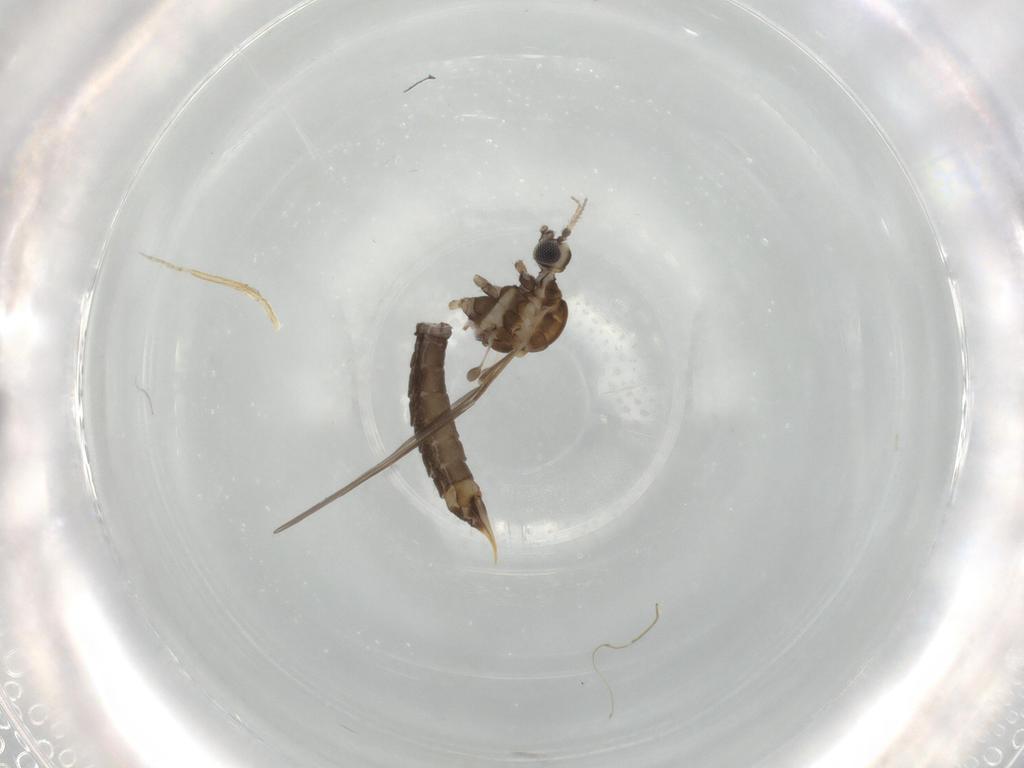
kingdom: Animalia
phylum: Arthropoda
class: Insecta
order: Diptera
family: Limoniidae
